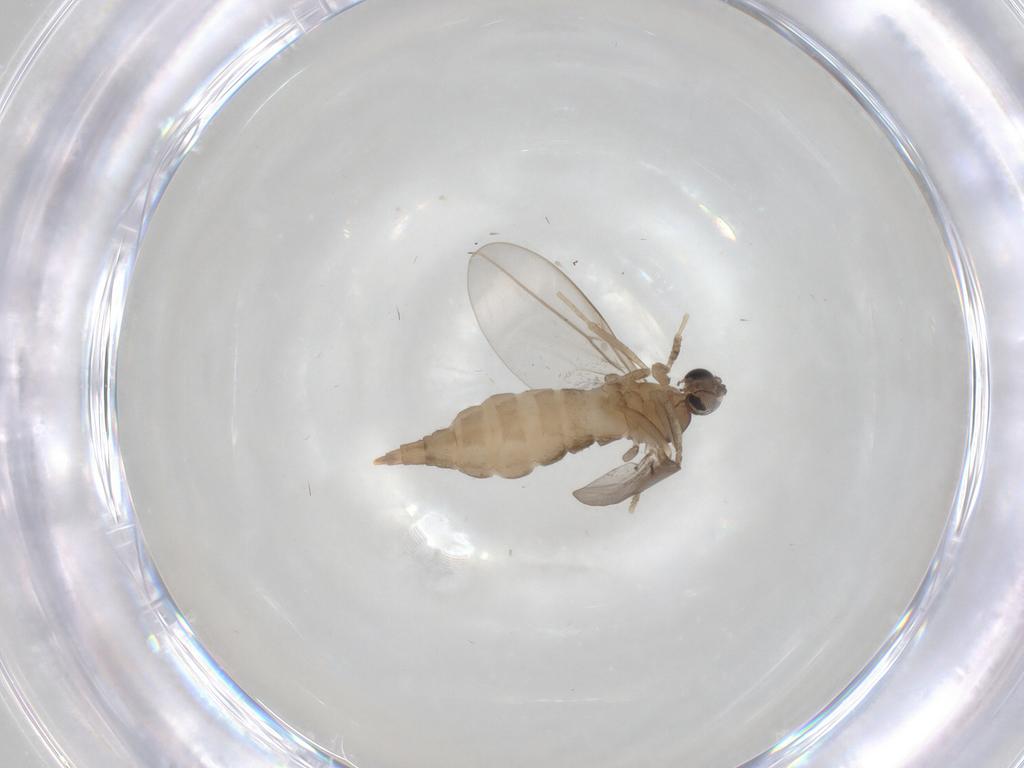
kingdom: Animalia
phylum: Arthropoda
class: Insecta
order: Diptera
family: Cecidomyiidae
